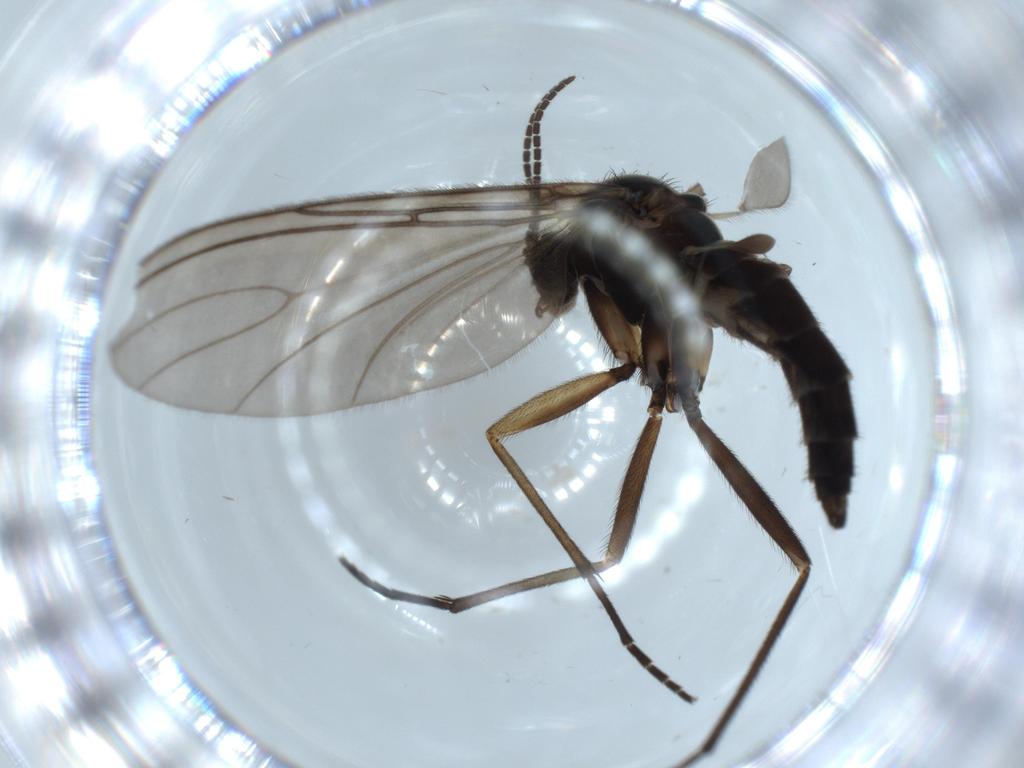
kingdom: Animalia
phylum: Arthropoda
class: Insecta
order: Diptera
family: Sciaridae
